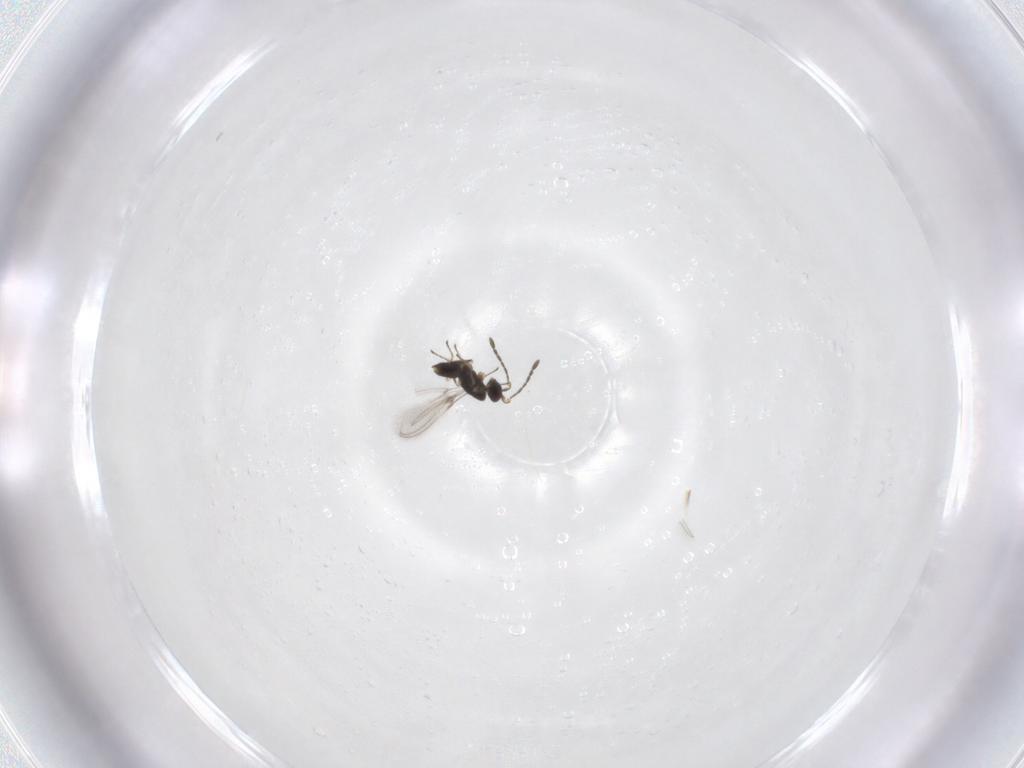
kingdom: Animalia
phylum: Arthropoda
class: Insecta
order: Hymenoptera
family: Mymaridae
